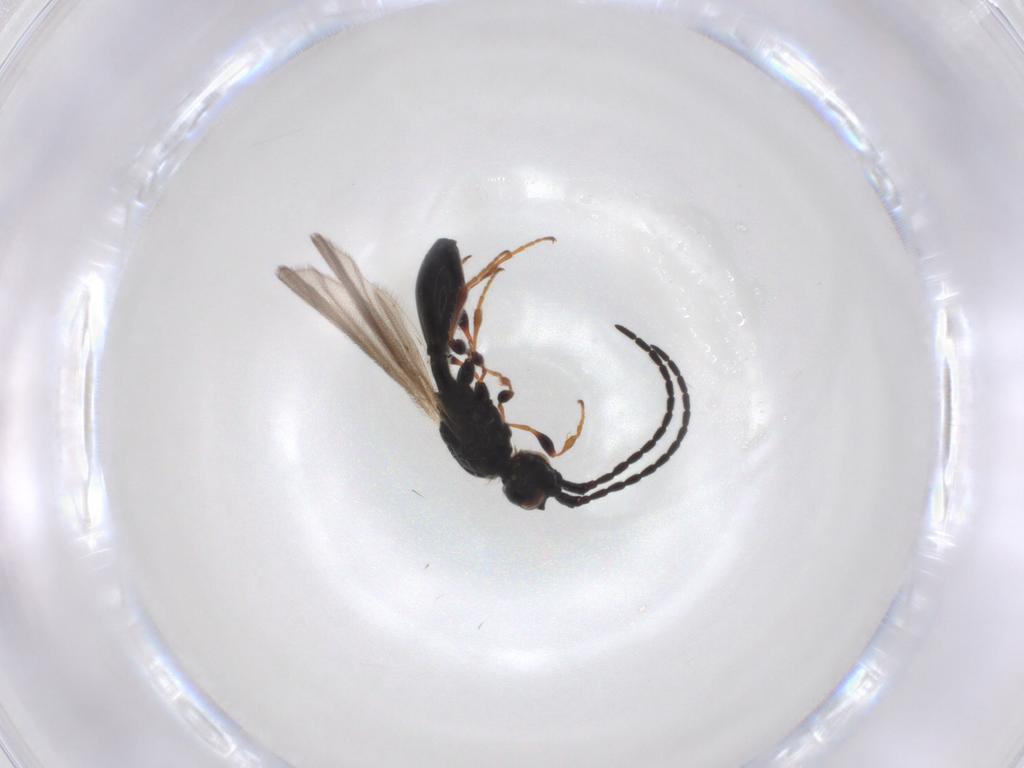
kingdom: Animalia
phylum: Arthropoda
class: Insecta
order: Hymenoptera
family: Diapriidae
